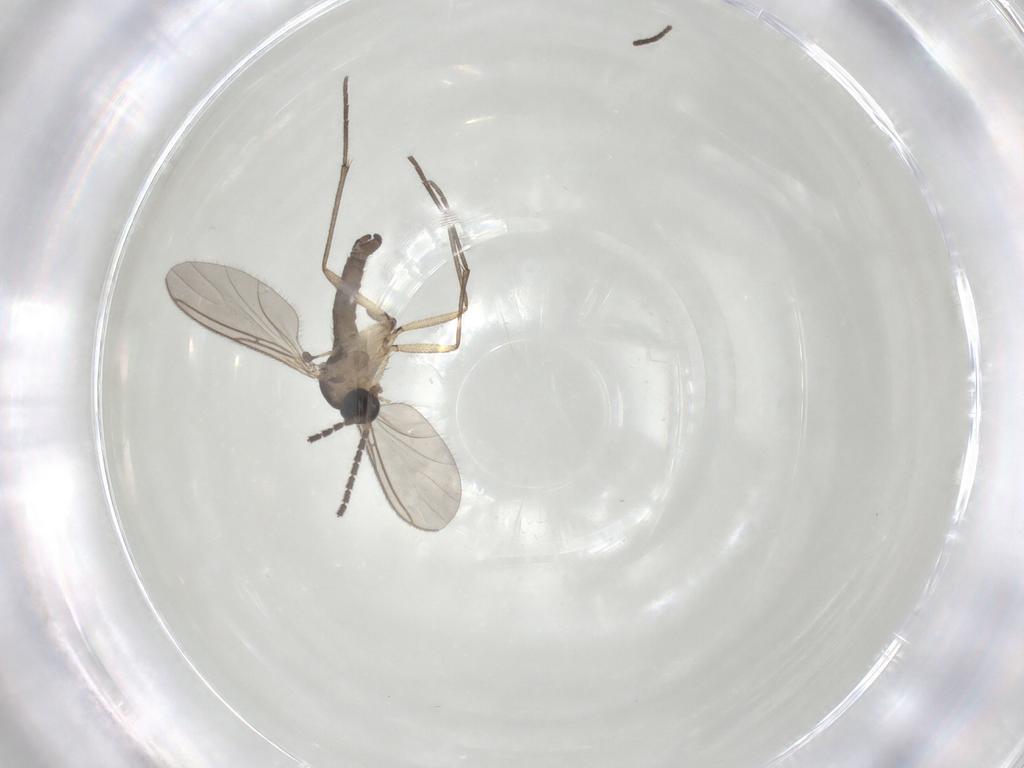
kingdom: Animalia
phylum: Arthropoda
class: Insecta
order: Diptera
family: Sciaridae
